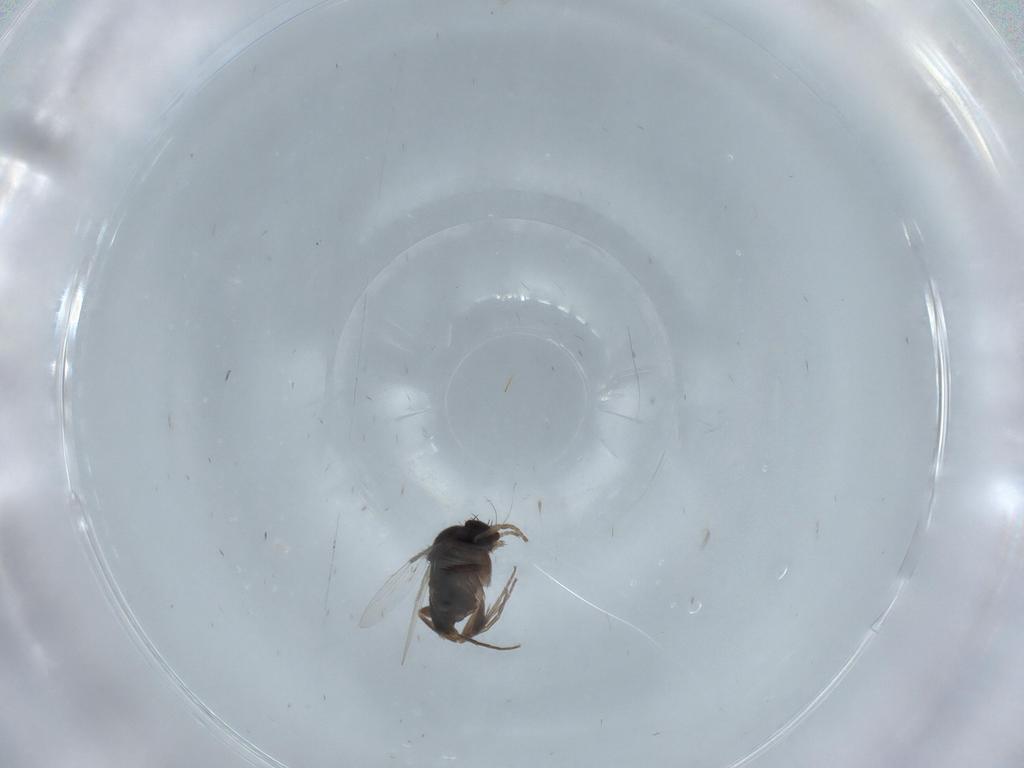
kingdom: Animalia
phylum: Arthropoda
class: Insecta
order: Diptera
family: Phoridae
